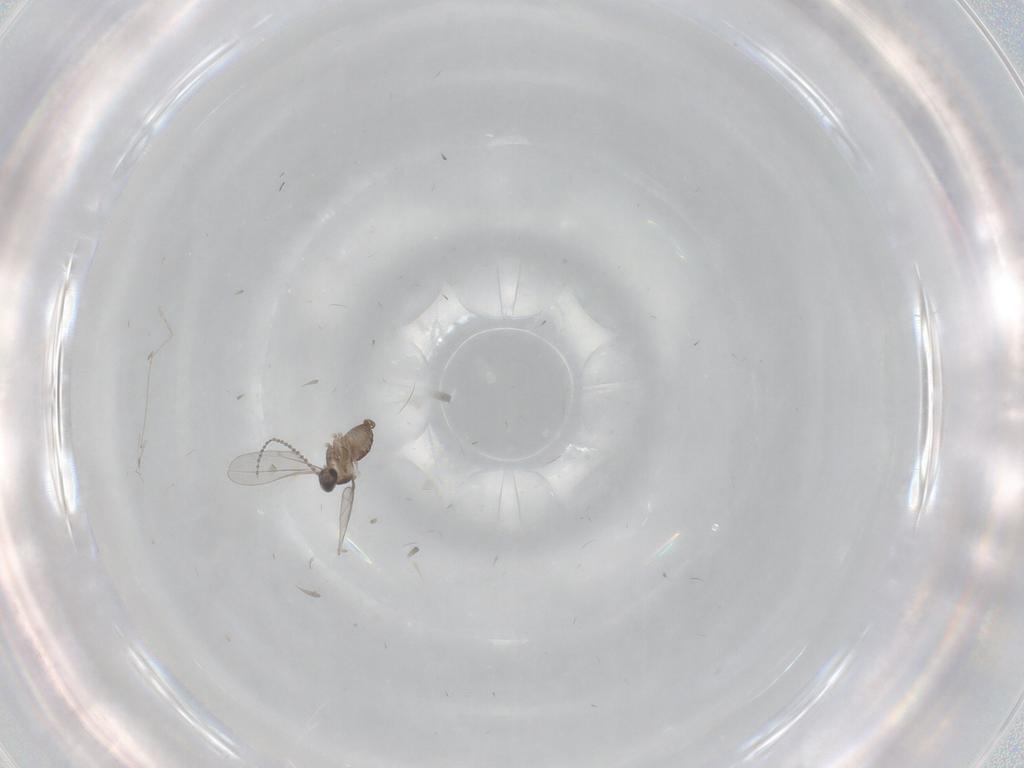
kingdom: Animalia
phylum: Arthropoda
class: Insecta
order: Diptera
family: Cecidomyiidae
